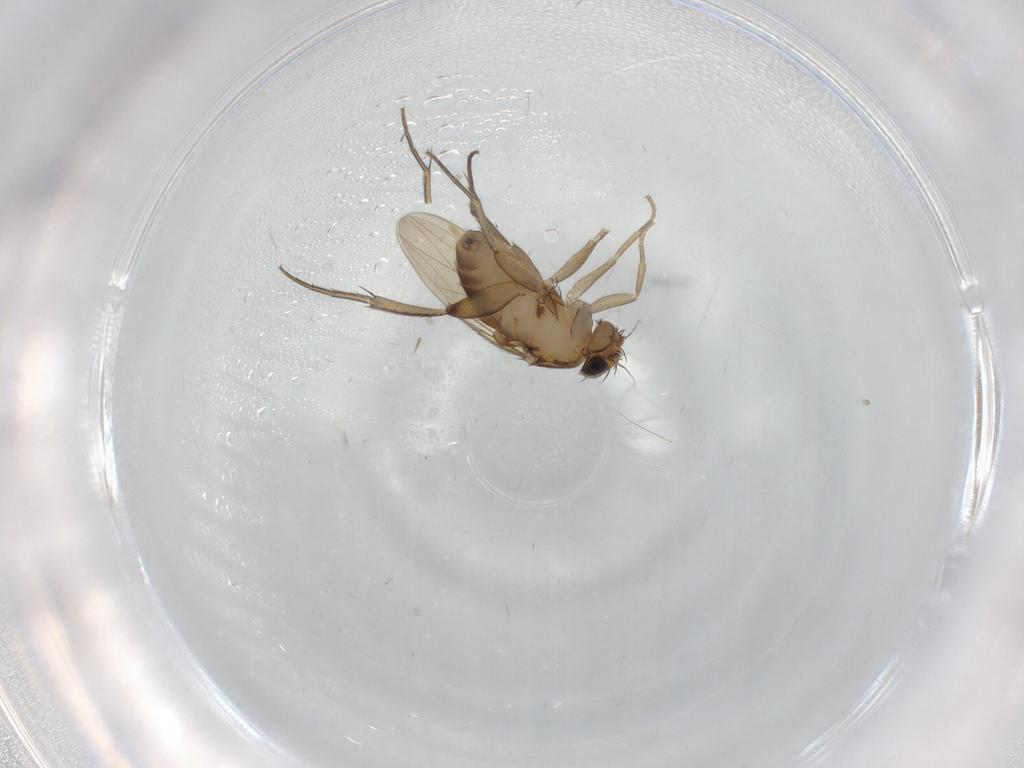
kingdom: Animalia
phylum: Arthropoda
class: Insecta
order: Diptera
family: Phoridae
